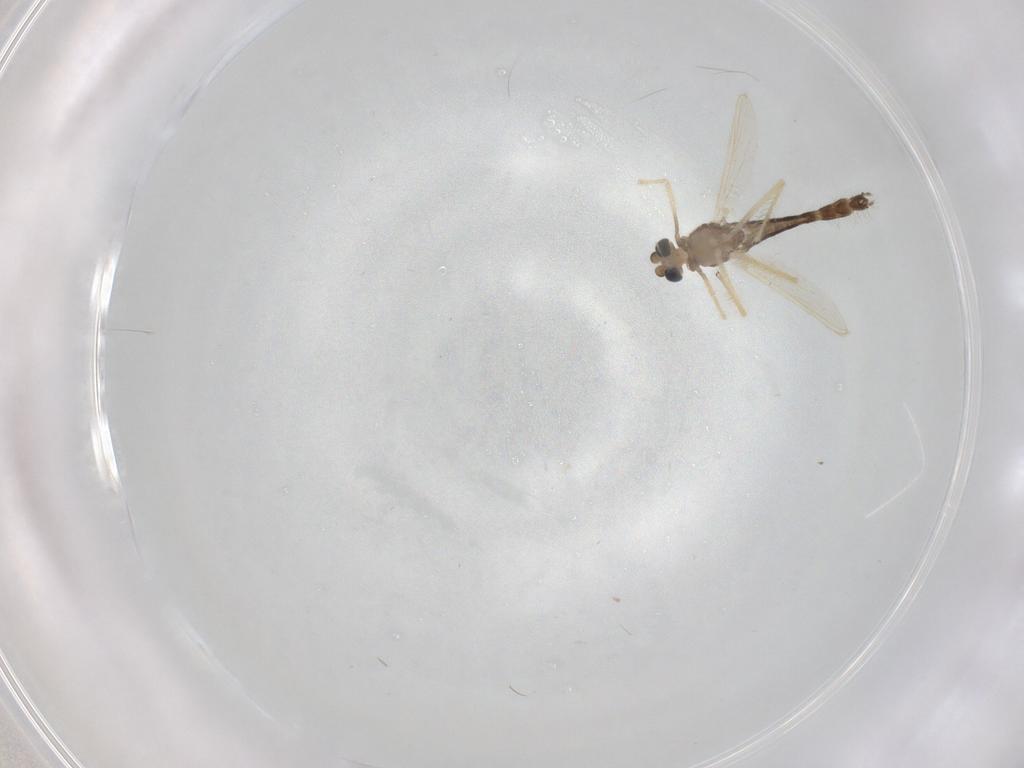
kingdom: Animalia
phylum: Arthropoda
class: Insecta
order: Diptera
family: Chironomidae
